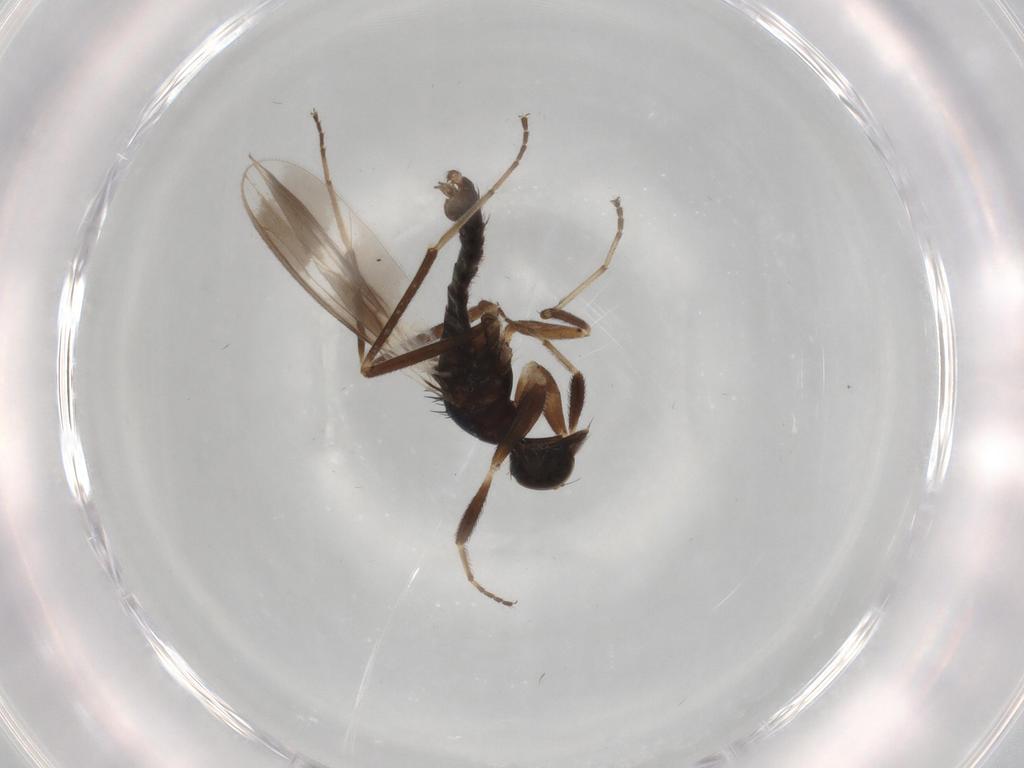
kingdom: Animalia
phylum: Arthropoda
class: Insecta
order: Diptera
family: Hybotidae
